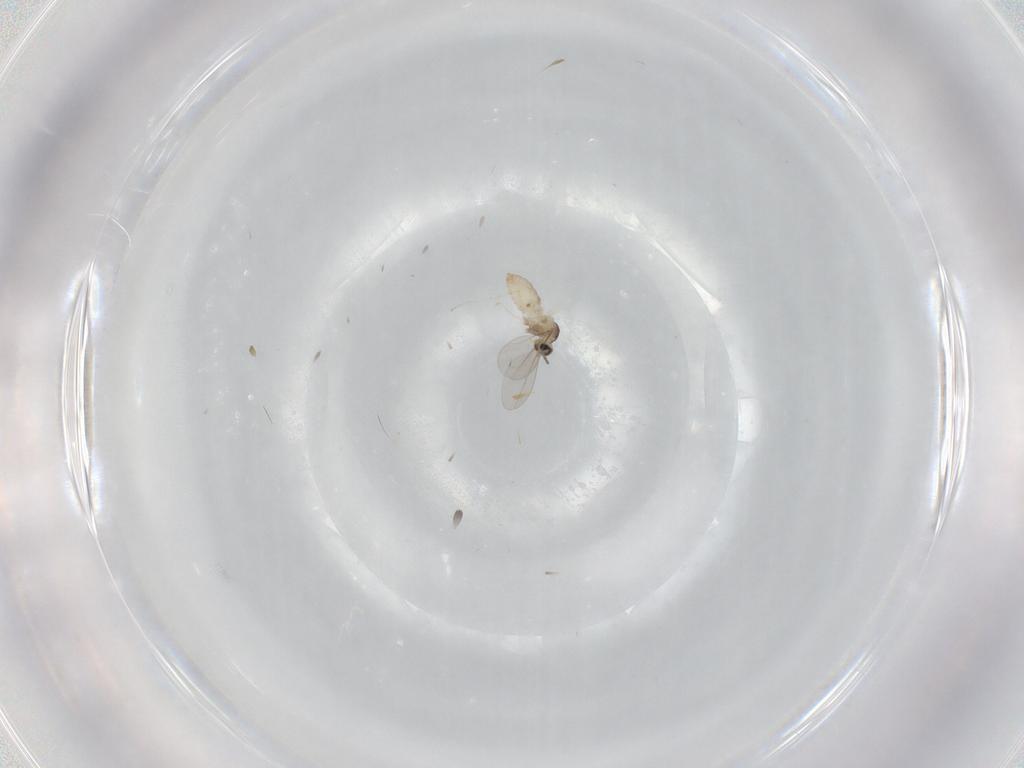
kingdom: Animalia
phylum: Arthropoda
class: Insecta
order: Diptera
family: Cecidomyiidae
